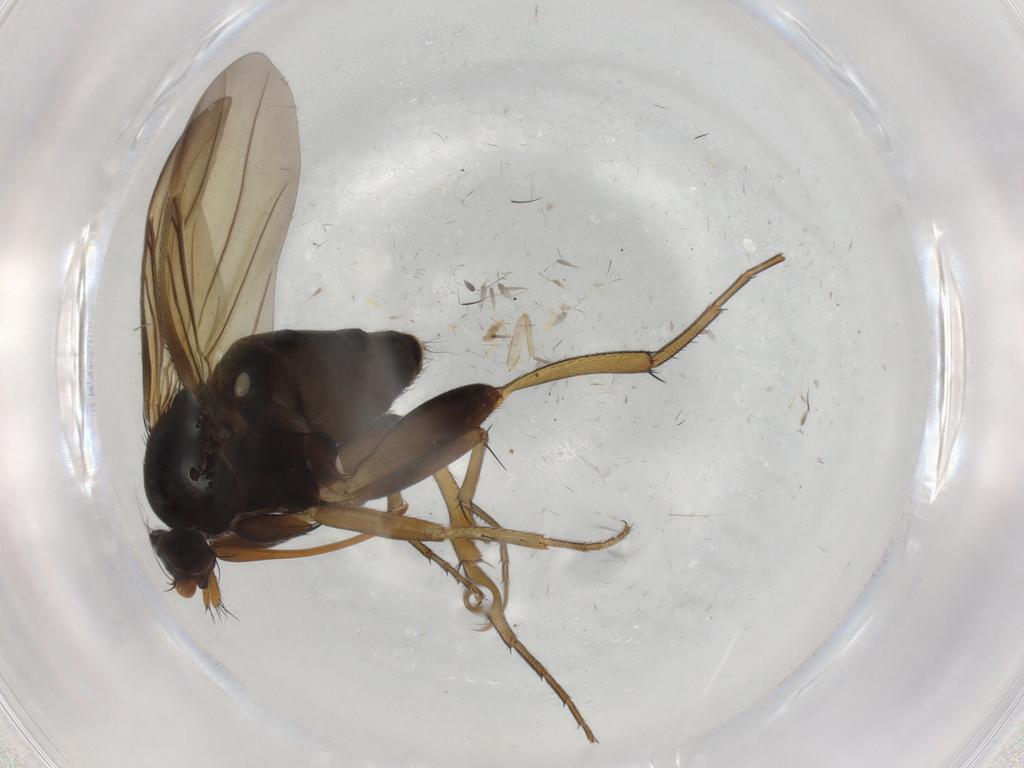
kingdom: Animalia
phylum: Arthropoda
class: Insecta
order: Diptera
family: Phoridae
